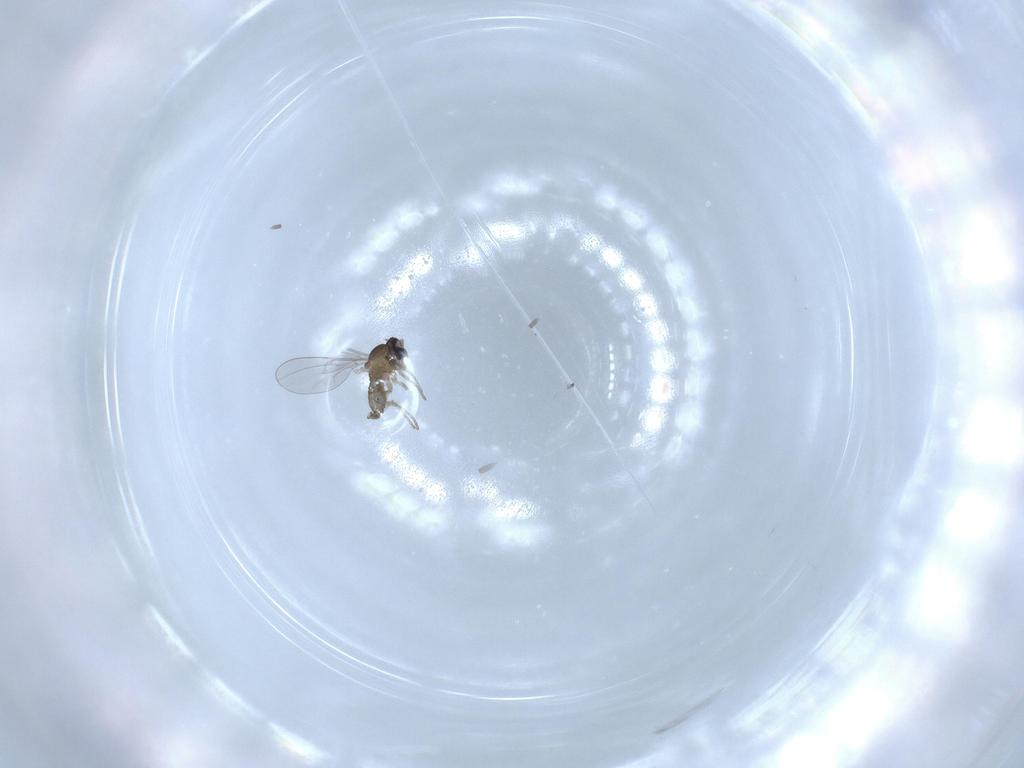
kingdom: Animalia
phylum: Arthropoda
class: Insecta
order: Diptera
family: Cecidomyiidae
